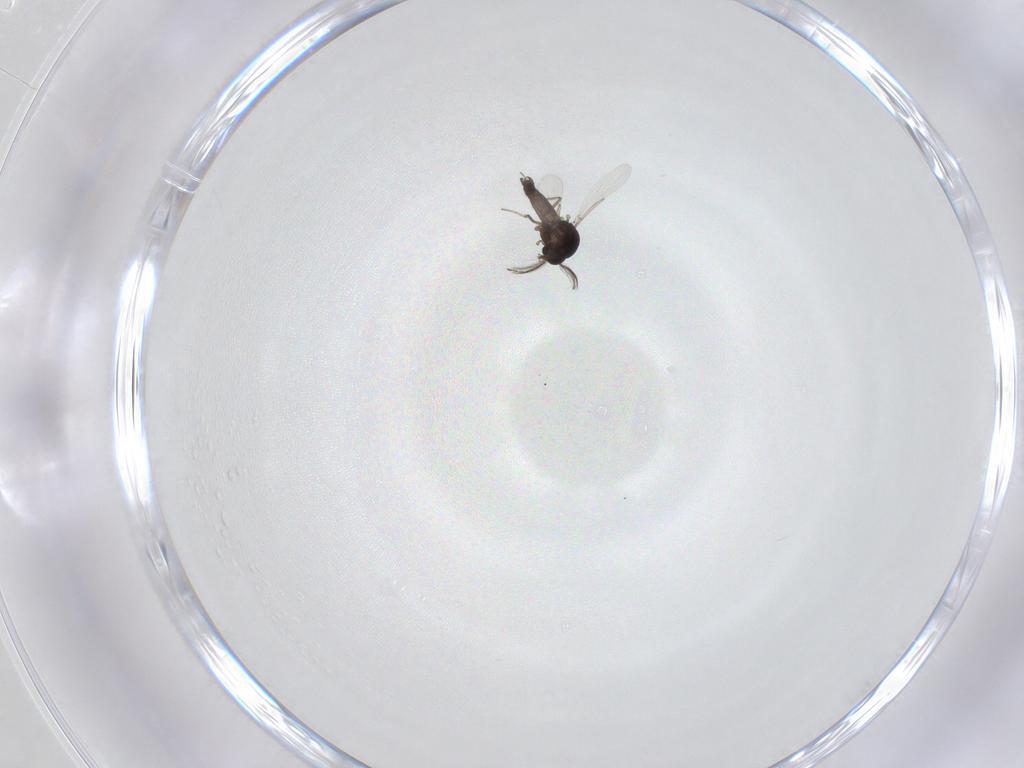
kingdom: Animalia
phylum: Arthropoda
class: Insecta
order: Diptera
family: Ceratopogonidae
